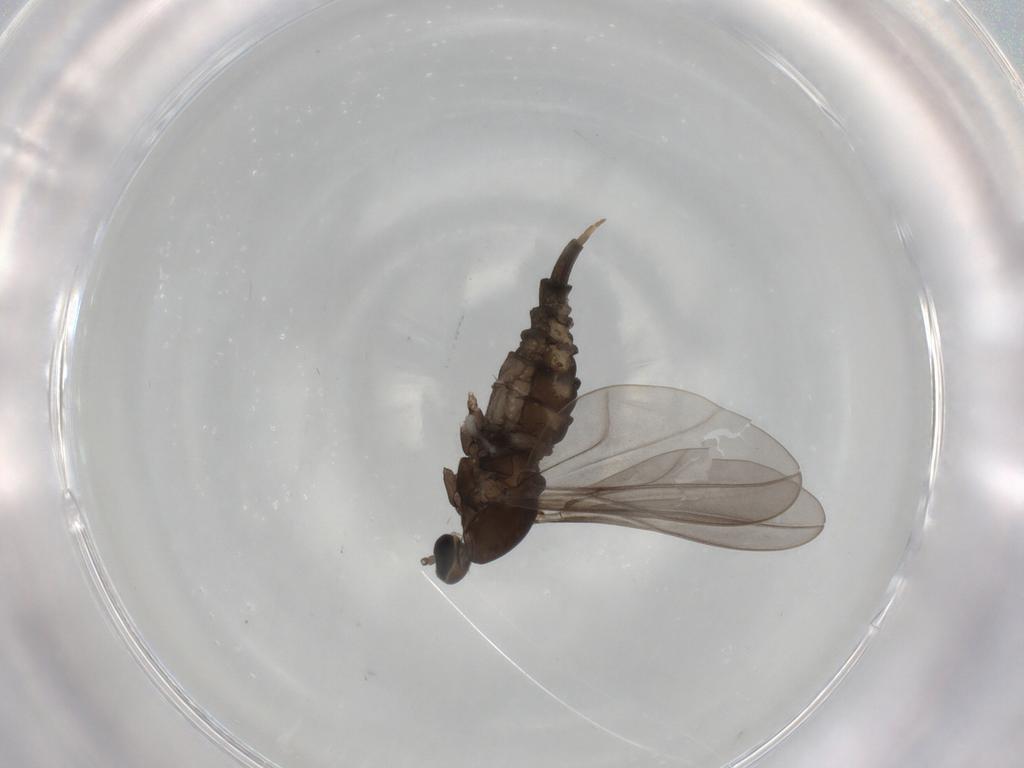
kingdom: Animalia
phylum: Arthropoda
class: Insecta
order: Diptera
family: Cecidomyiidae
